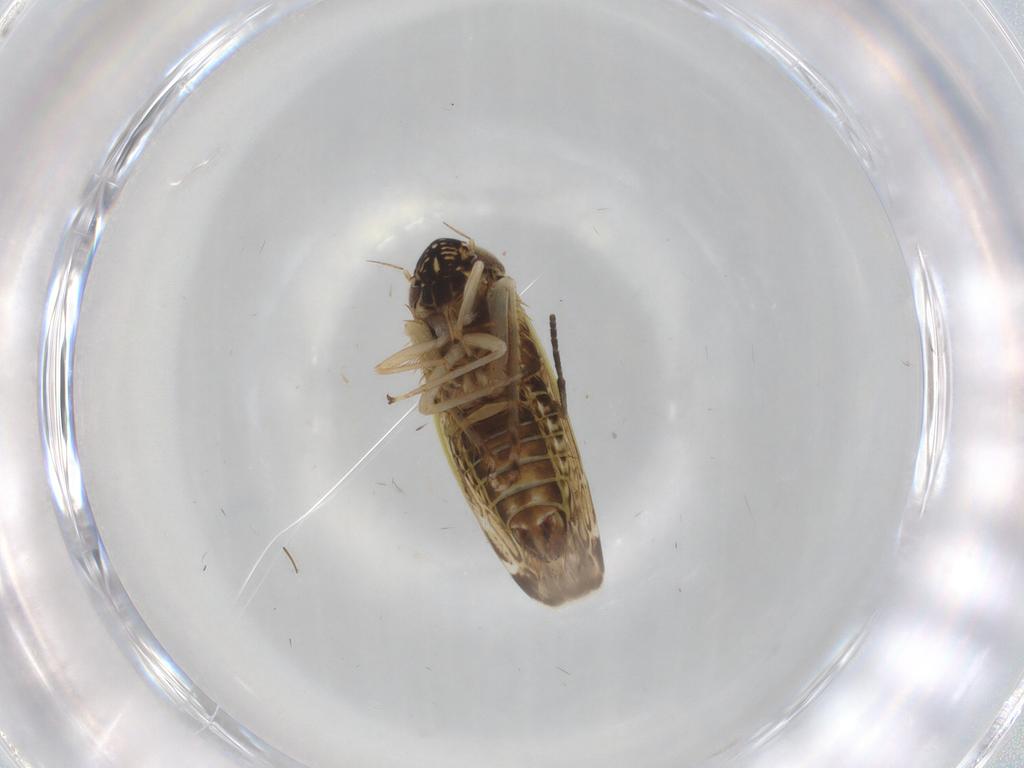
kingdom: Animalia
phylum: Arthropoda
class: Insecta
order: Hemiptera
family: Cicadellidae
